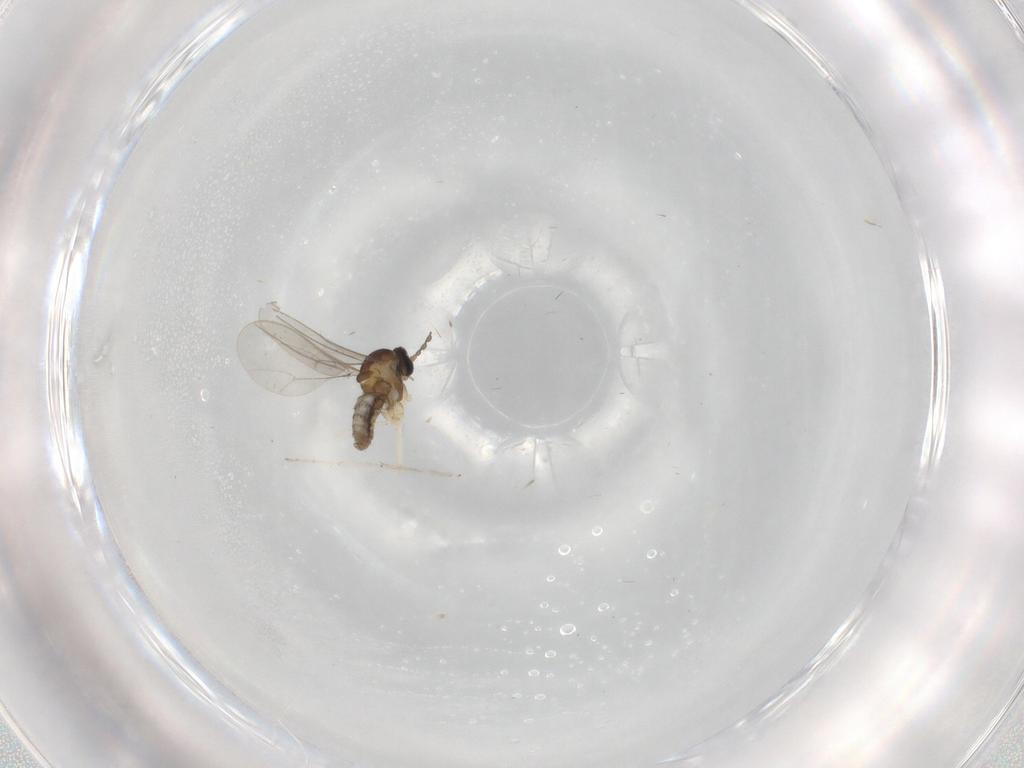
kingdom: Animalia
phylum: Arthropoda
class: Insecta
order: Diptera
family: Cecidomyiidae
